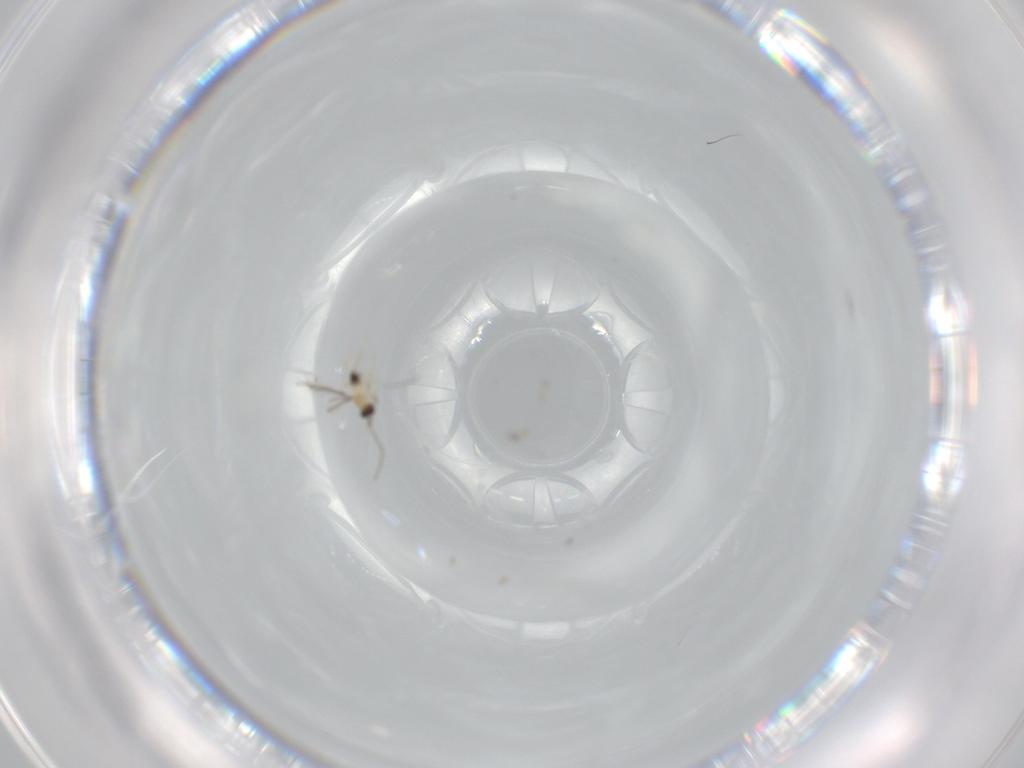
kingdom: Animalia
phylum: Arthropoda
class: Insecta
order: Hymenoptera
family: Mymaridae
